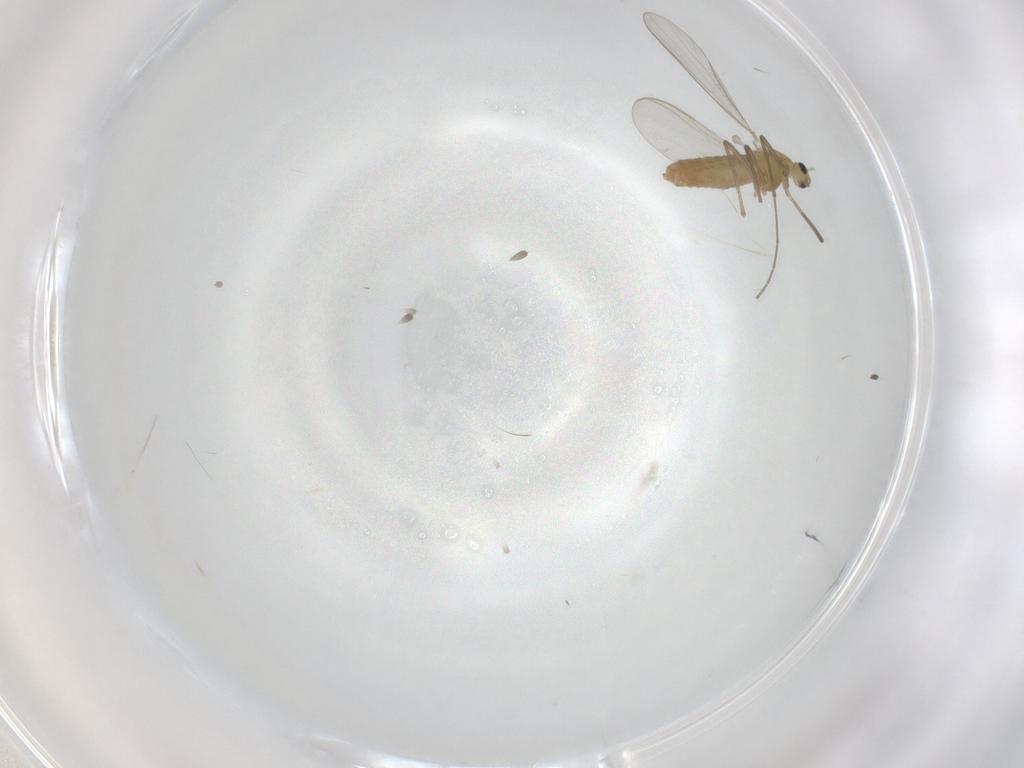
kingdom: Animalia
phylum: Arthropoda
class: Insecta
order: Diptera
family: Chironomidae
